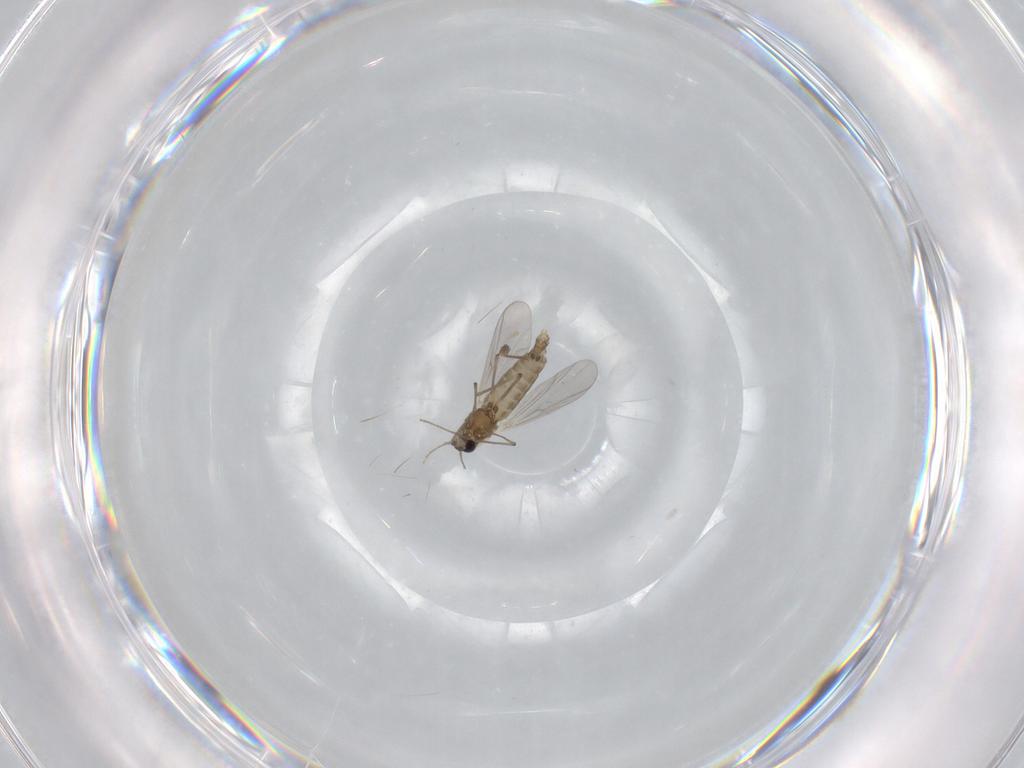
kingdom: Animalia
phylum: Arthropoda
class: Insecta
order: Diptera
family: Chironomidae
